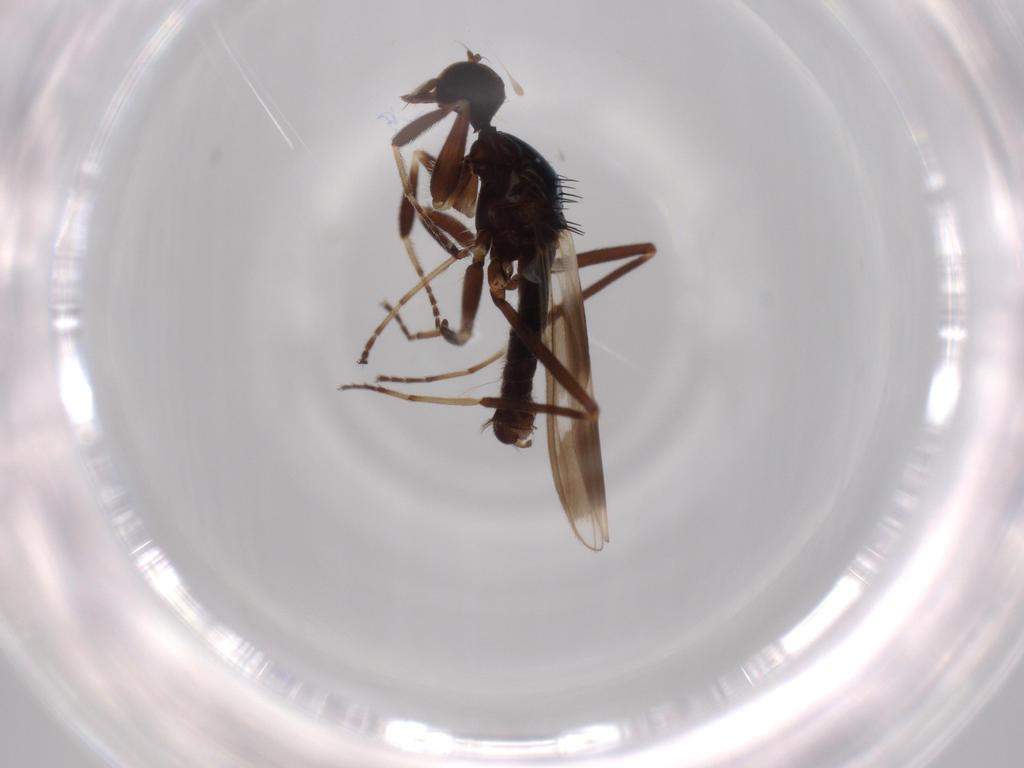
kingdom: Animalia
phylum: Arthropoda
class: Insecta
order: Diptera
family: Hybotidae
